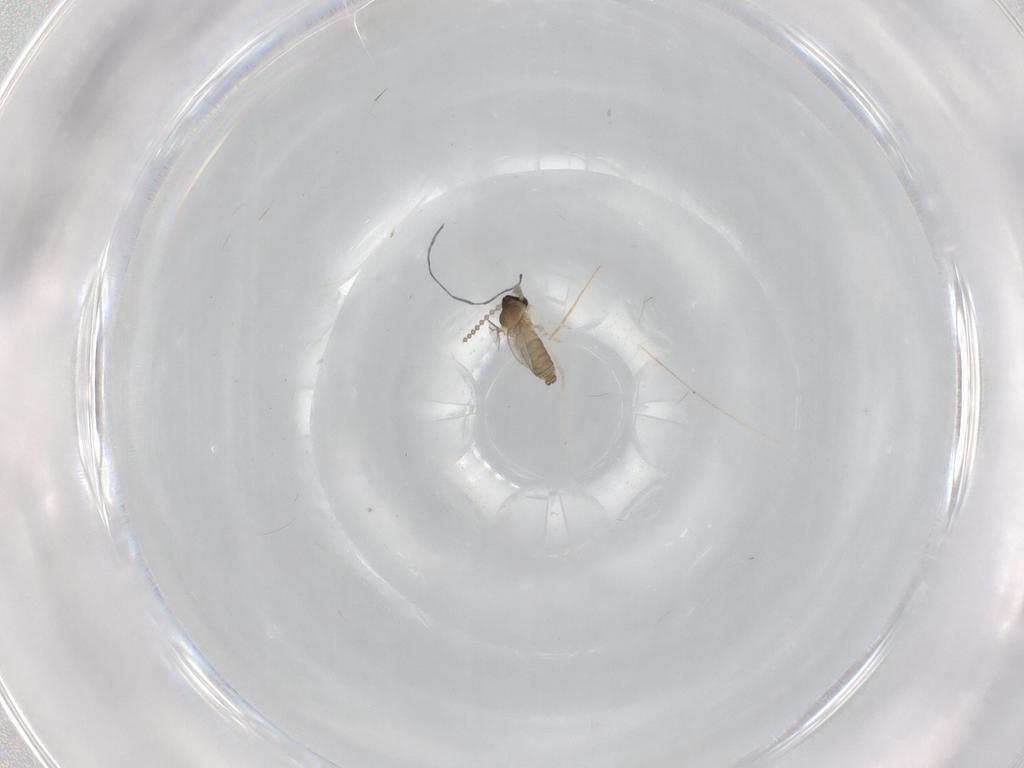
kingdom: Animalia
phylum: Arthropoda
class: Insecta
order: Diptera
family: Cecidomyiidae
